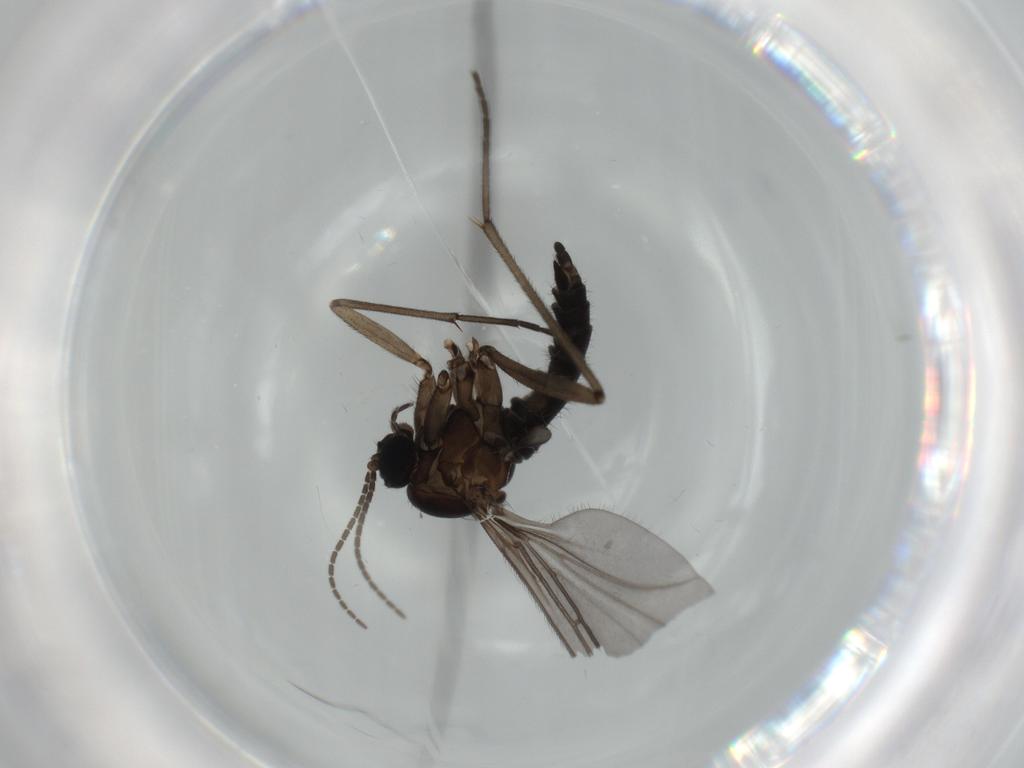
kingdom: Animalia
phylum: Arthropoda
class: Insecta
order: Diptera
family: Sciaridae
